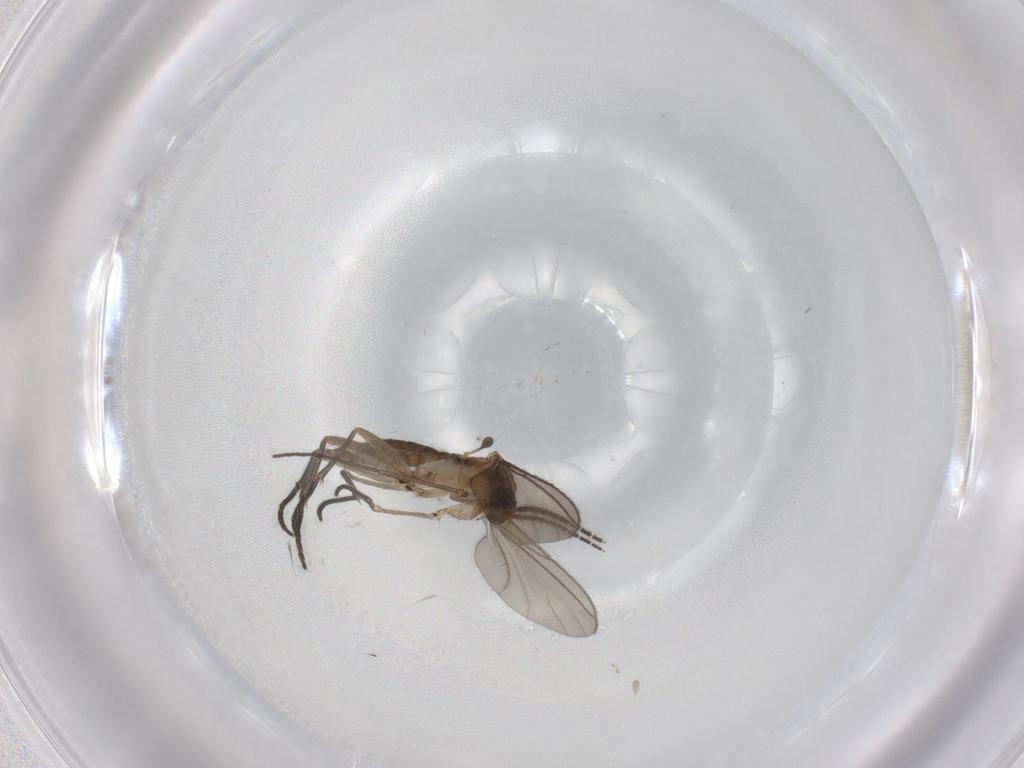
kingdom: Animalia
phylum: Arthropoda
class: Insecta
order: Diptera
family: Sciaridae
